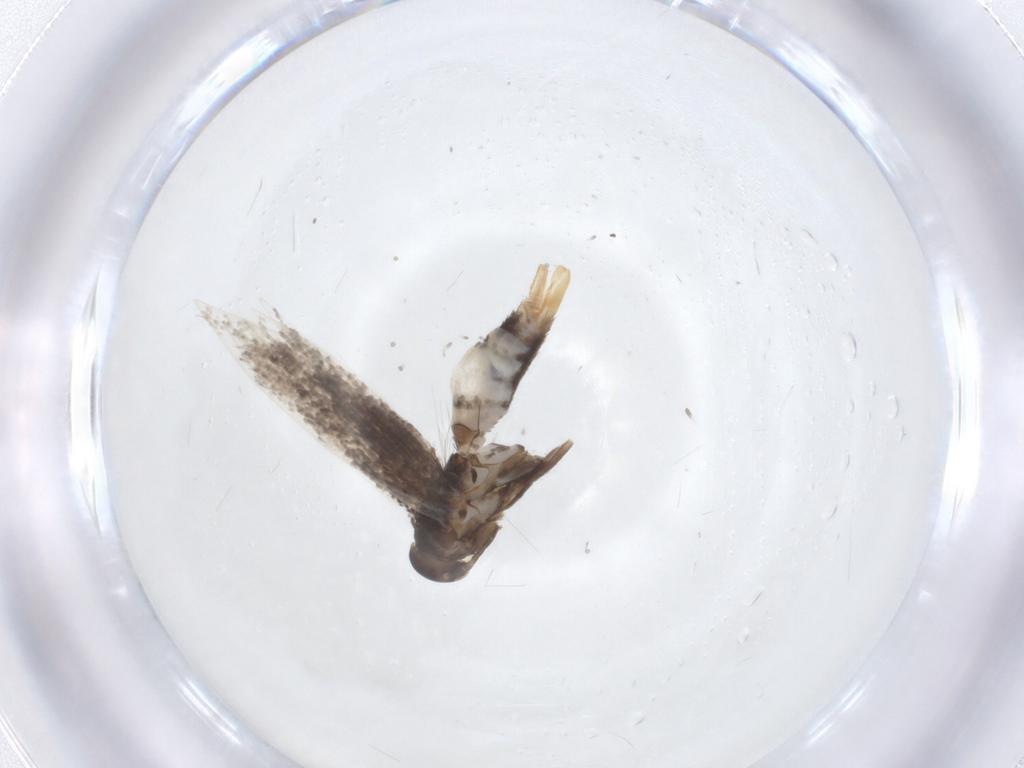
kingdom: Animalia
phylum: Arthropoda
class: Insecta
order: Lepidoptera
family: Elachistidae
